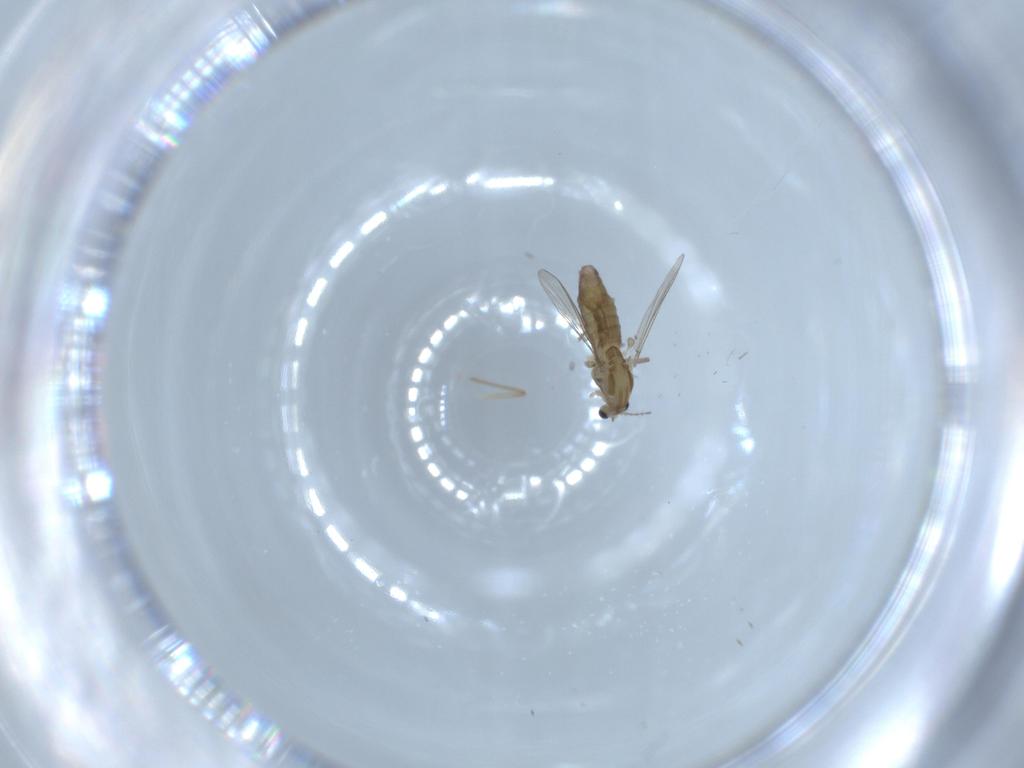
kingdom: Animalia
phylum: Arthropoda
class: Insecta
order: Diptera
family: Chironomidae
